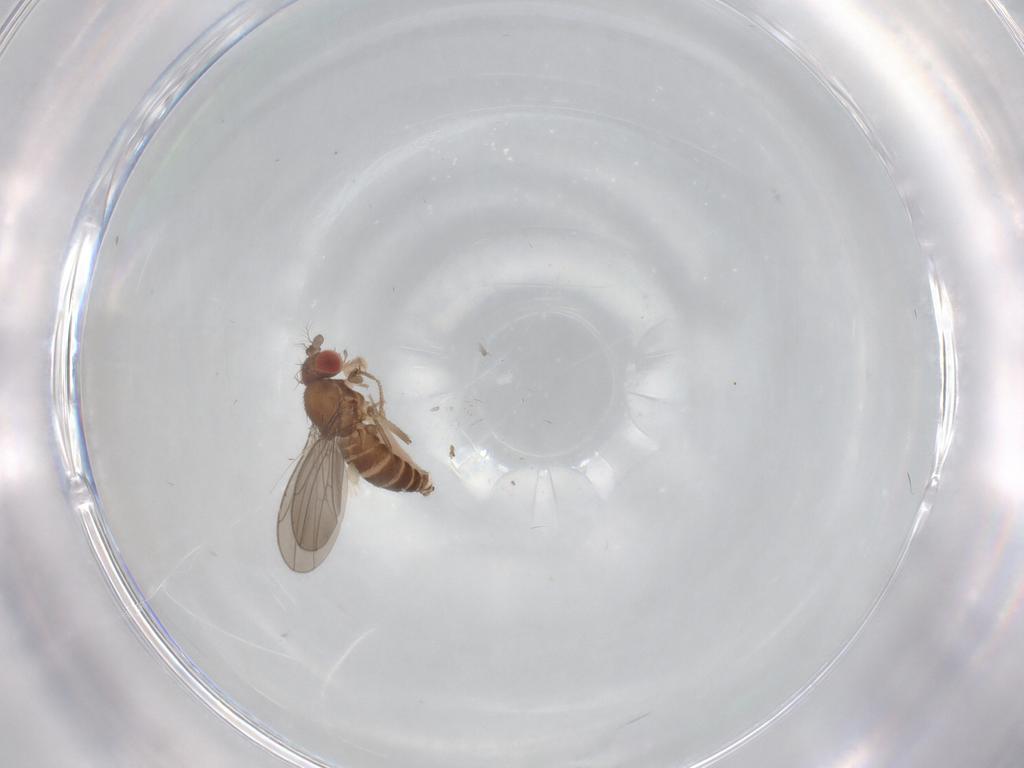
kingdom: Animalia
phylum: Arthropoda
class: Insecta
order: Diptera
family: Drosophilidae
